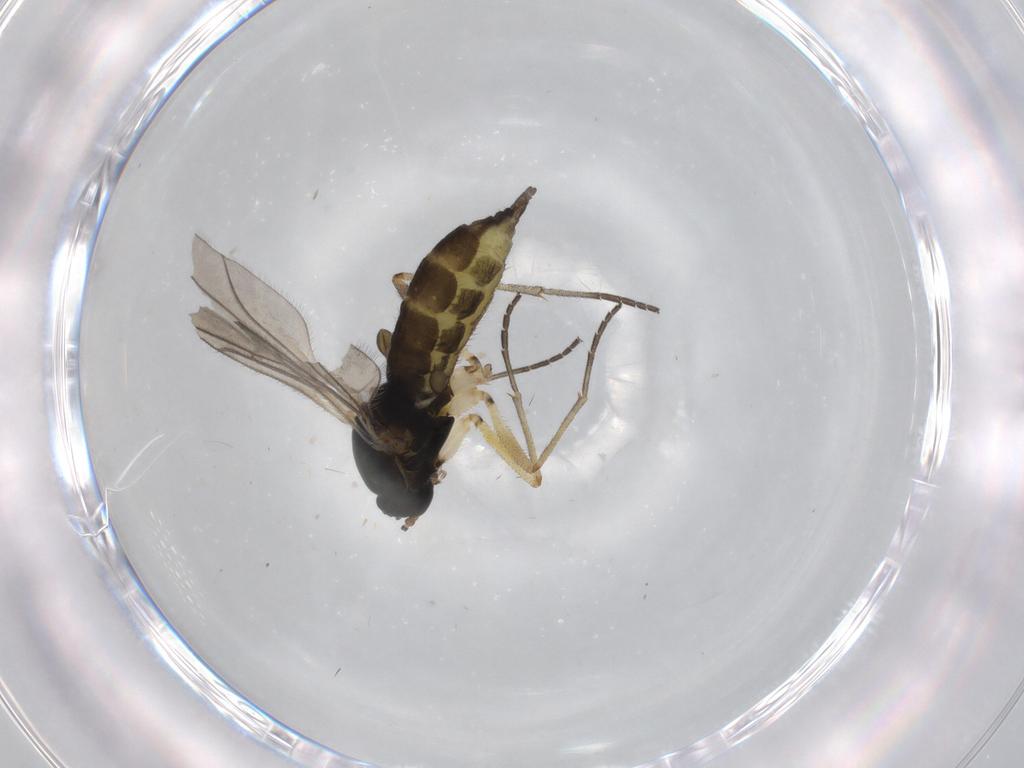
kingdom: Animalia
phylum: Arthropoda
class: Insecta
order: Diptera
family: Sciaridae
